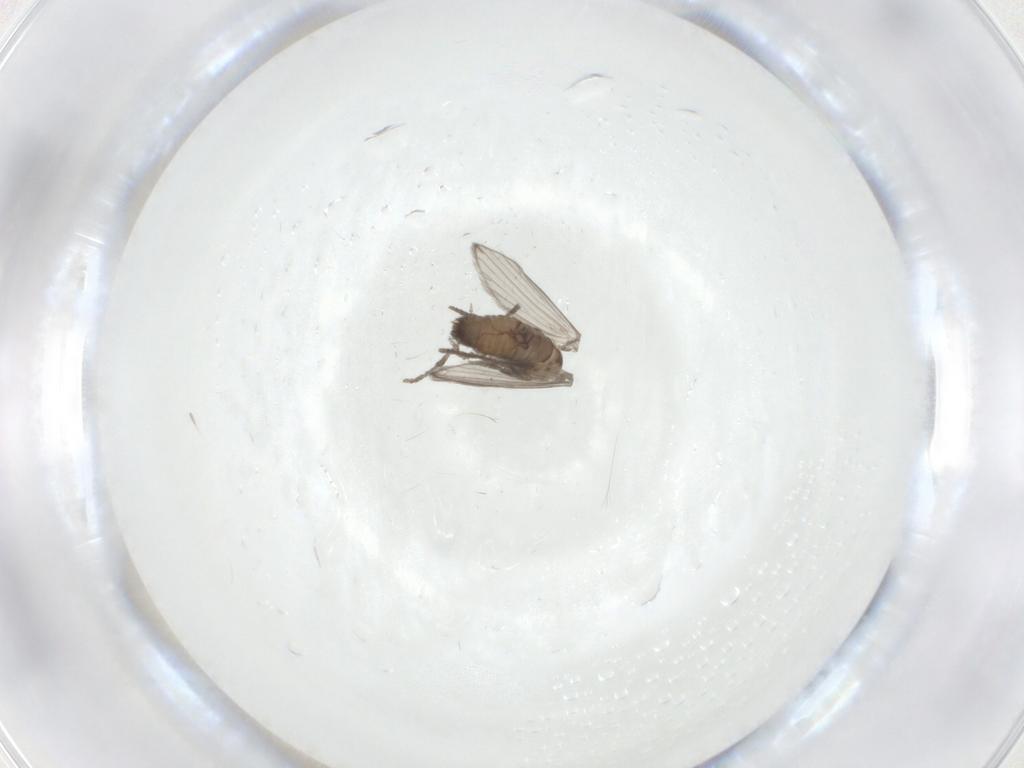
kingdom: Animalia
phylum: Arthropoda
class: Insecta
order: Diptera
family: Psychodidae
